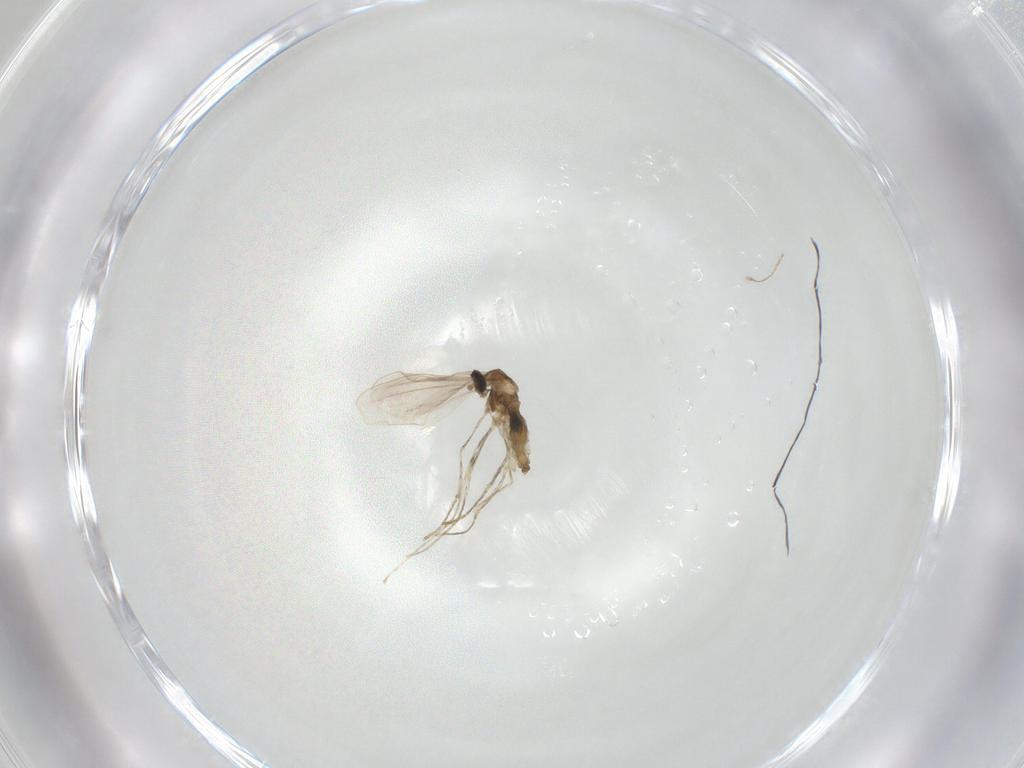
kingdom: Animalia
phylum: Arthropoda
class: Insecta
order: Diptera
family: Cecidomyiidae
